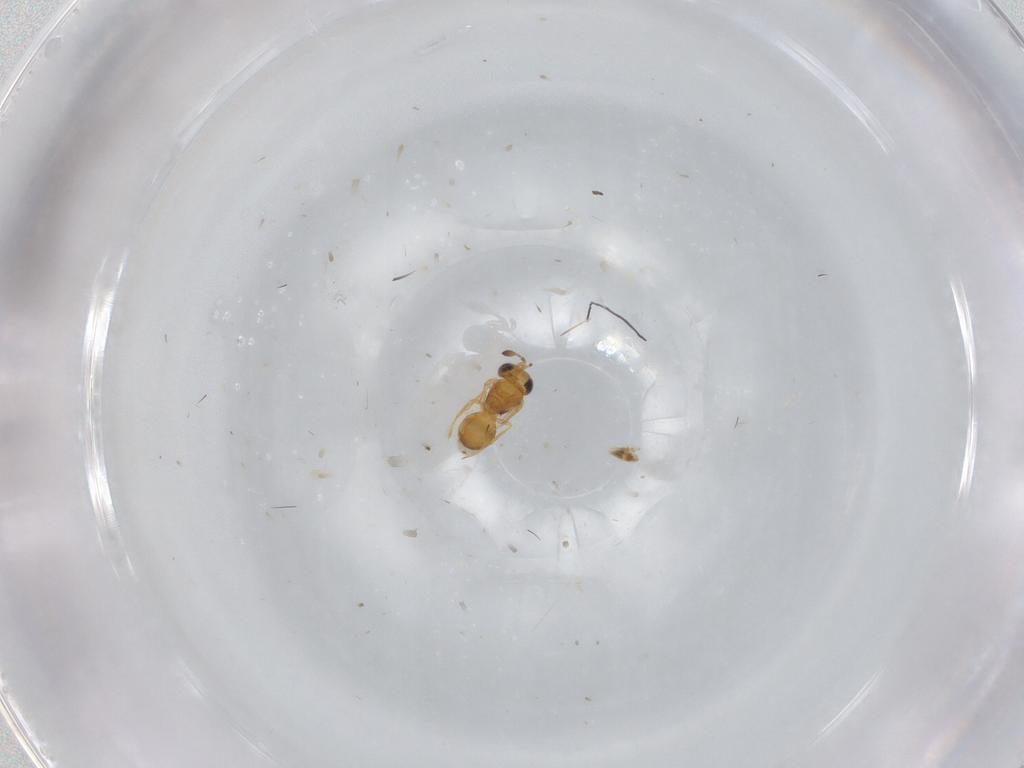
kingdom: Animalia
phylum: Arthropoda
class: Insecta
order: Hymenoptera
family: Scelionidae
